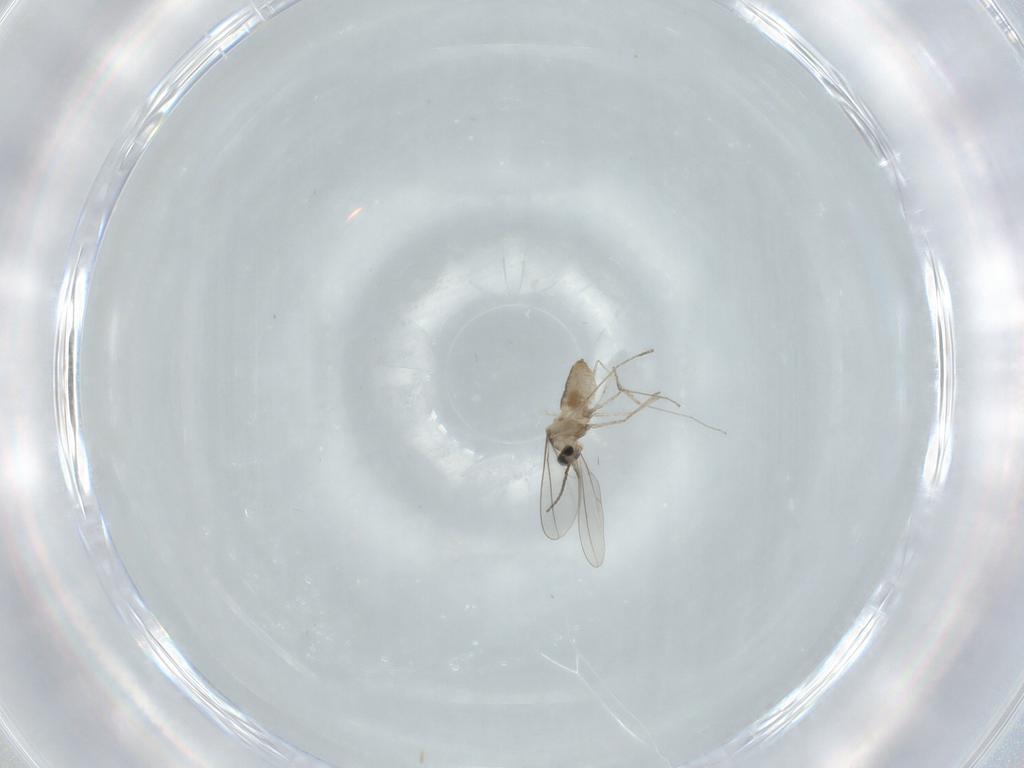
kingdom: Animalia
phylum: Arthropoda
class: Insecta
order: Diptera
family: Cecidomyiidae
